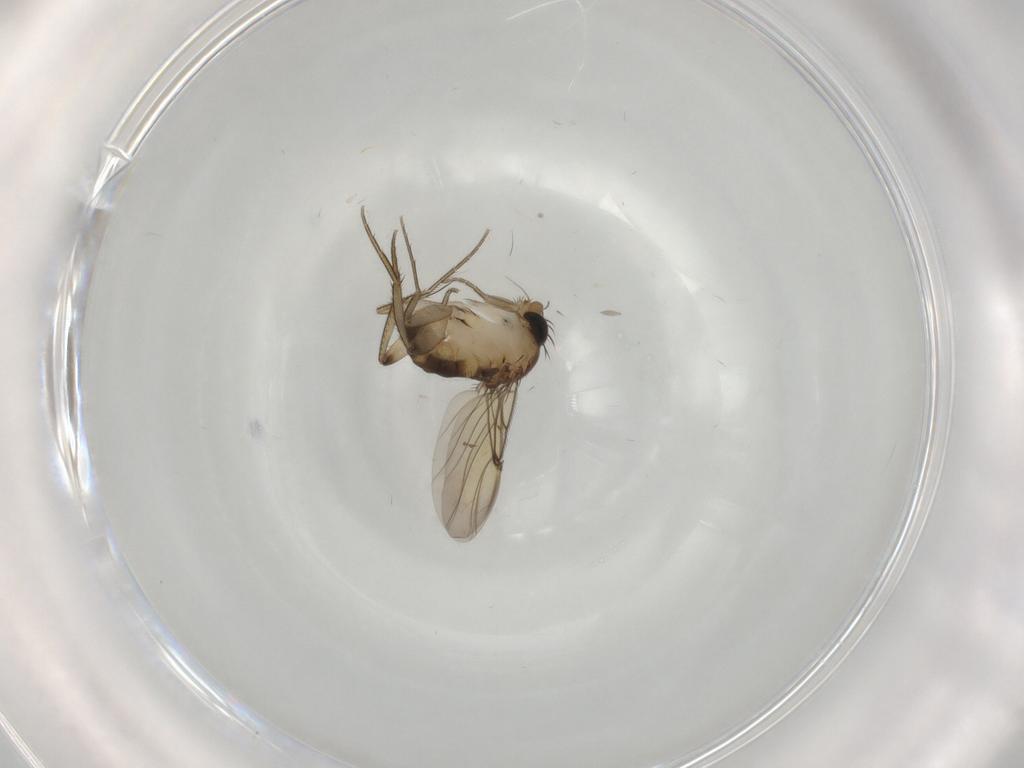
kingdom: Animalia
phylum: Arthropoda
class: Insecta
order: Diptera
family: Phoridae
